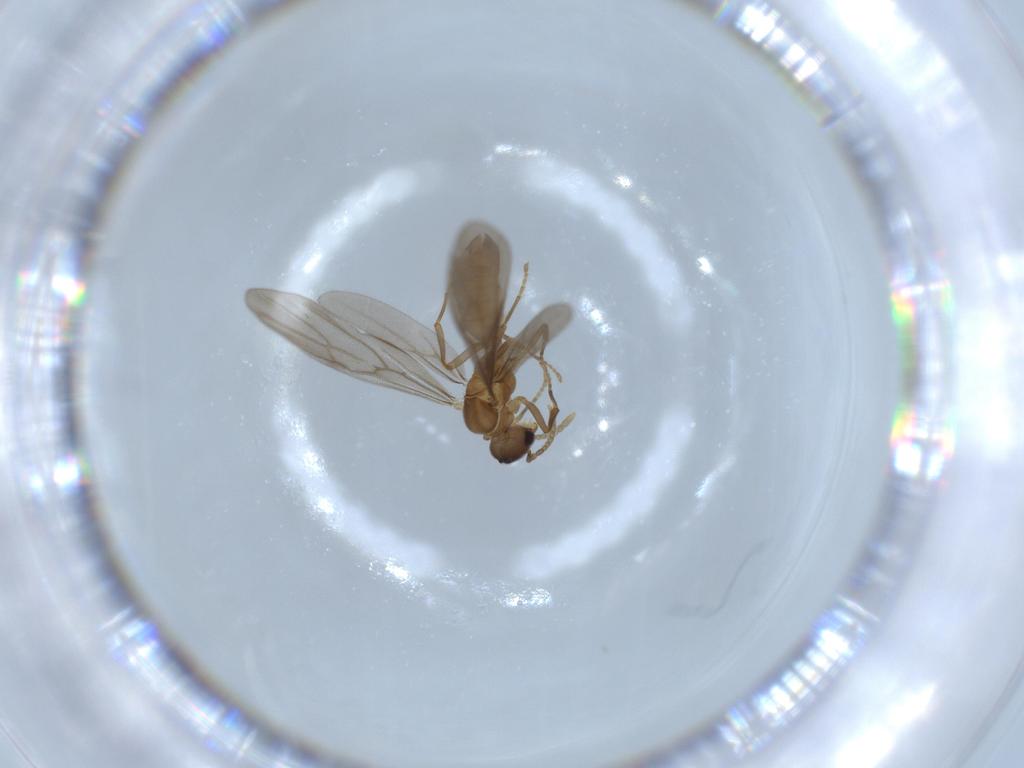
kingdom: Animalia
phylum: Arthropoda
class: Insecta
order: Hymenoptera
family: Formicidae
